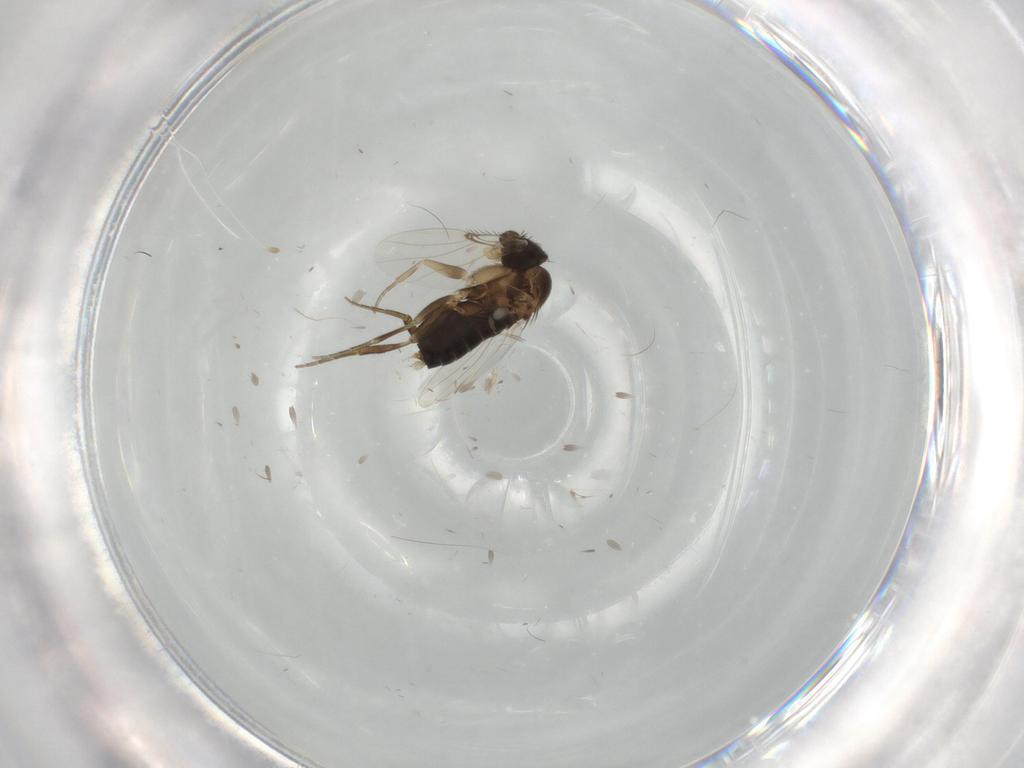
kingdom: Animalia
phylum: Arthropoda
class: Insecta
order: Diptera
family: Phoridae
